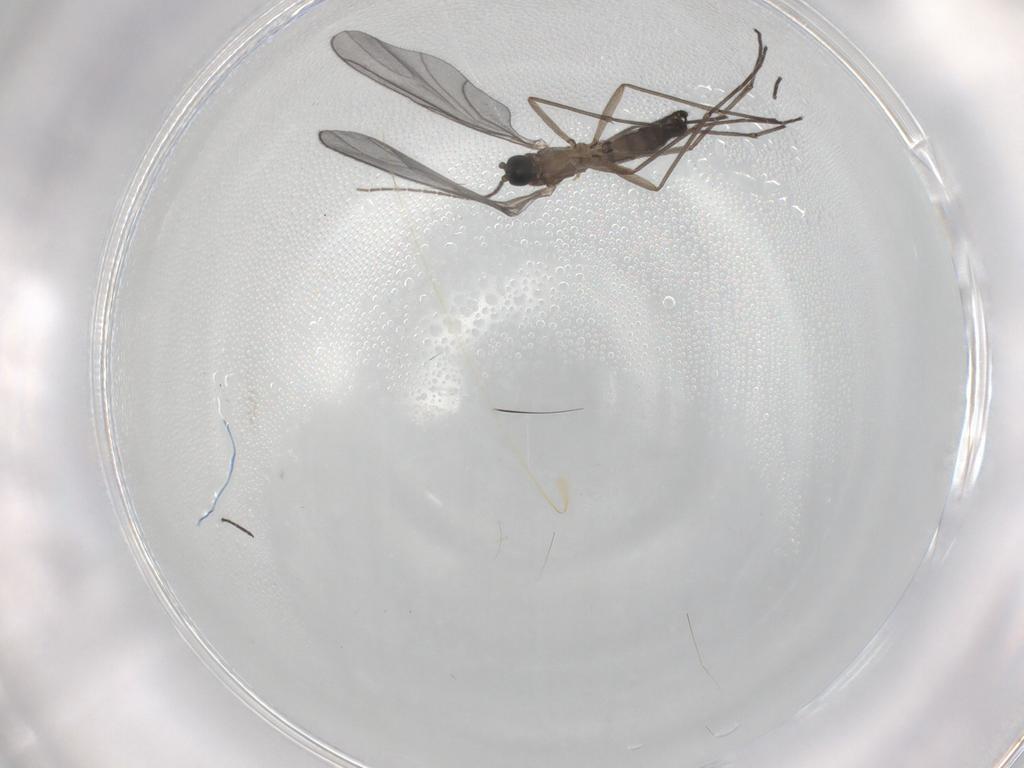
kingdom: Animalia
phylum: Arthropoda
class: Insecta
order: Diptera
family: Sciaridae
